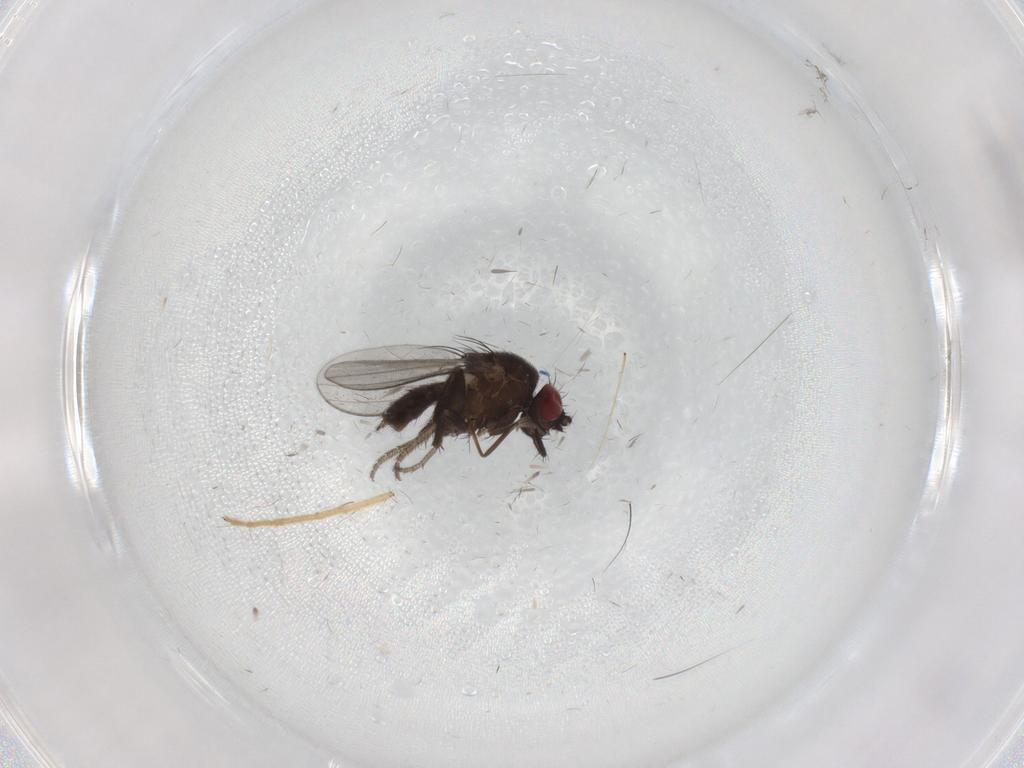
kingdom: Animalia
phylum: Arthropoda
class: Insecta
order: Diptera
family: Milichiidae
